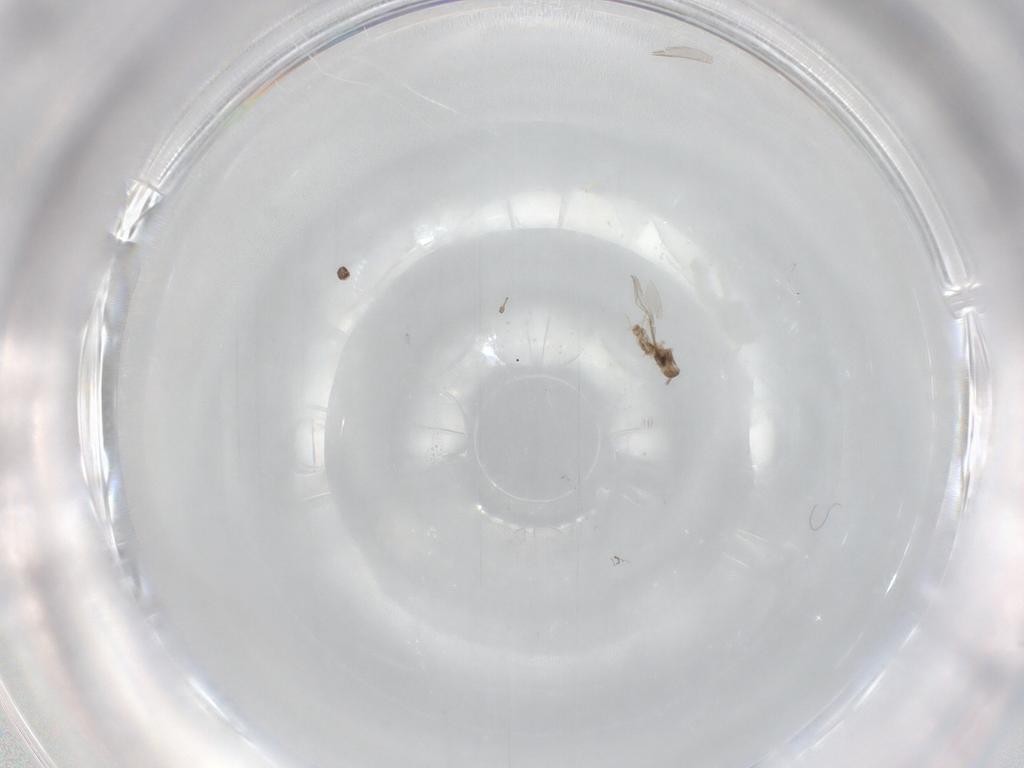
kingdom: Animalia
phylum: Arthropoda
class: Insecta
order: Diptera
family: Cecidomyiidae
